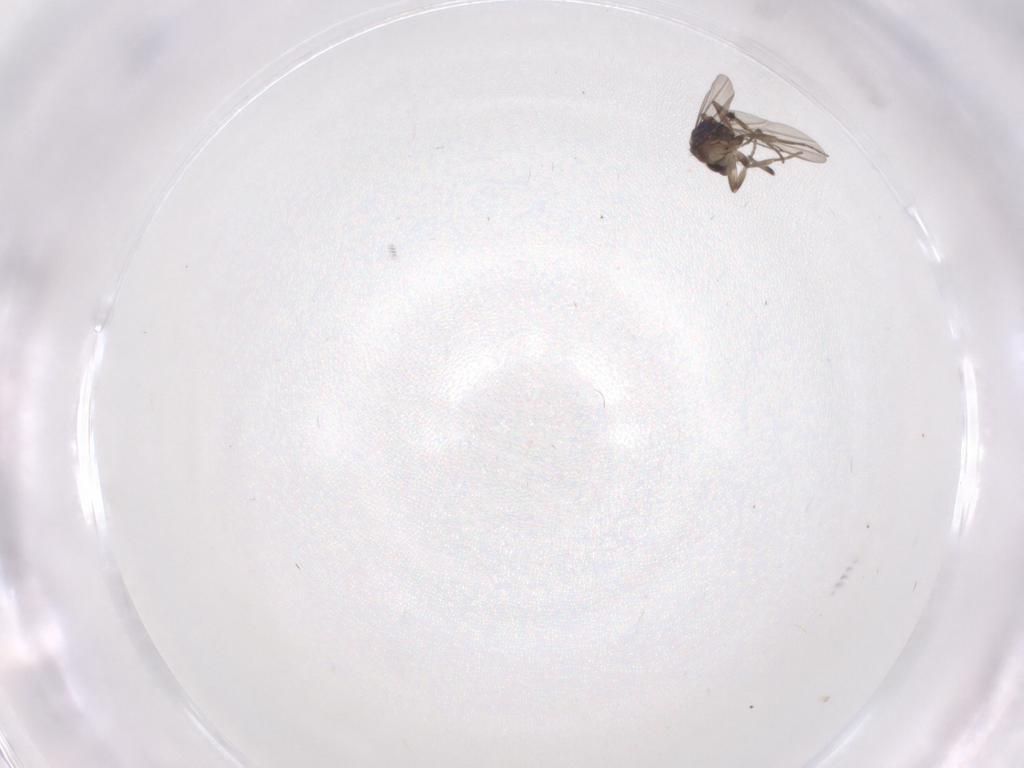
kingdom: Animalia
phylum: Arthropoda
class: Insecta
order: Diptera
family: Phoridae
